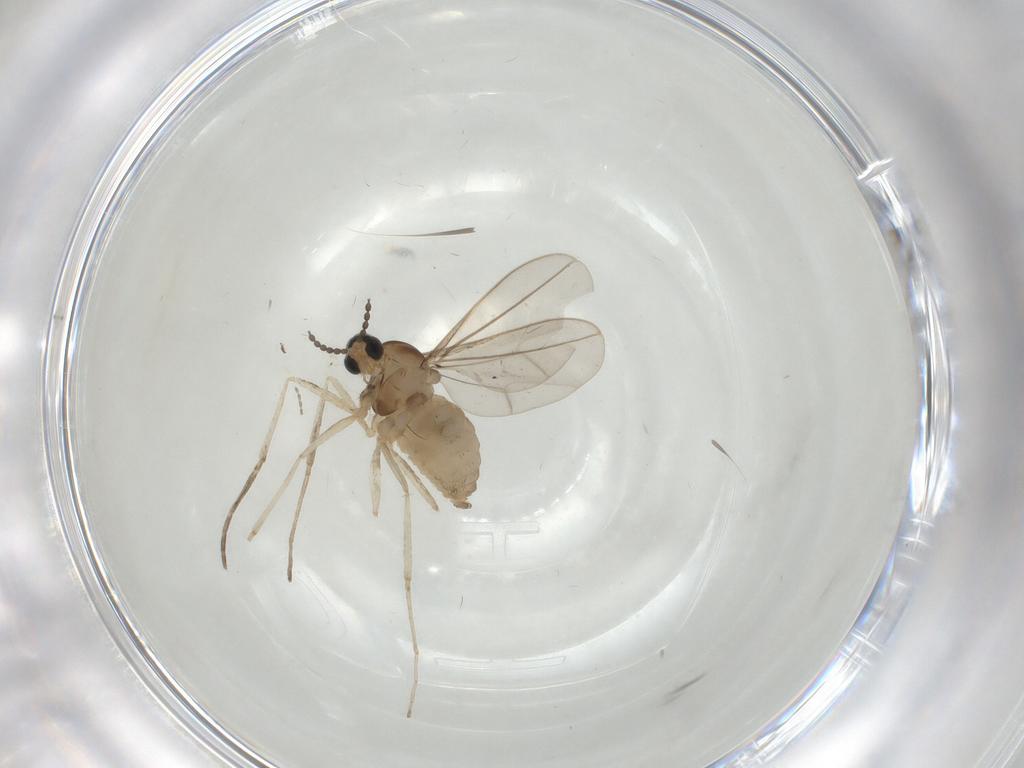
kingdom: Animalia
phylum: Arthropoda
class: Insecta
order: Diptera
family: Cecidomyiidae
